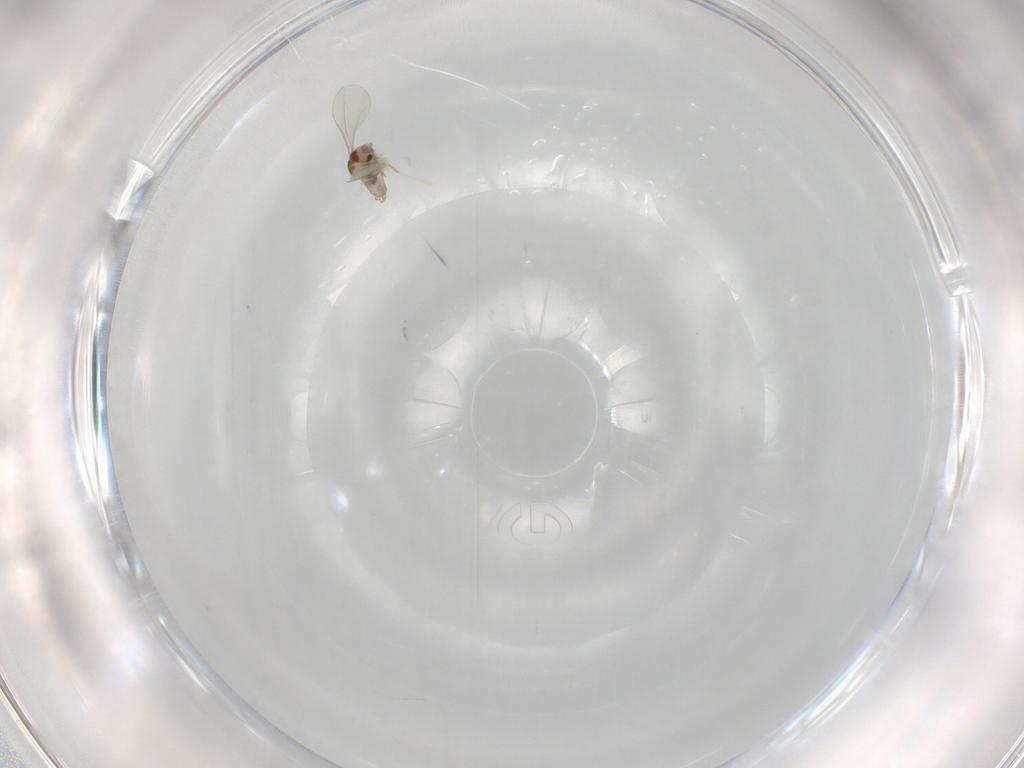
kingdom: Animalia
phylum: Arthropoda
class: Insecta
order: Diptera
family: Cecidomyiidae
